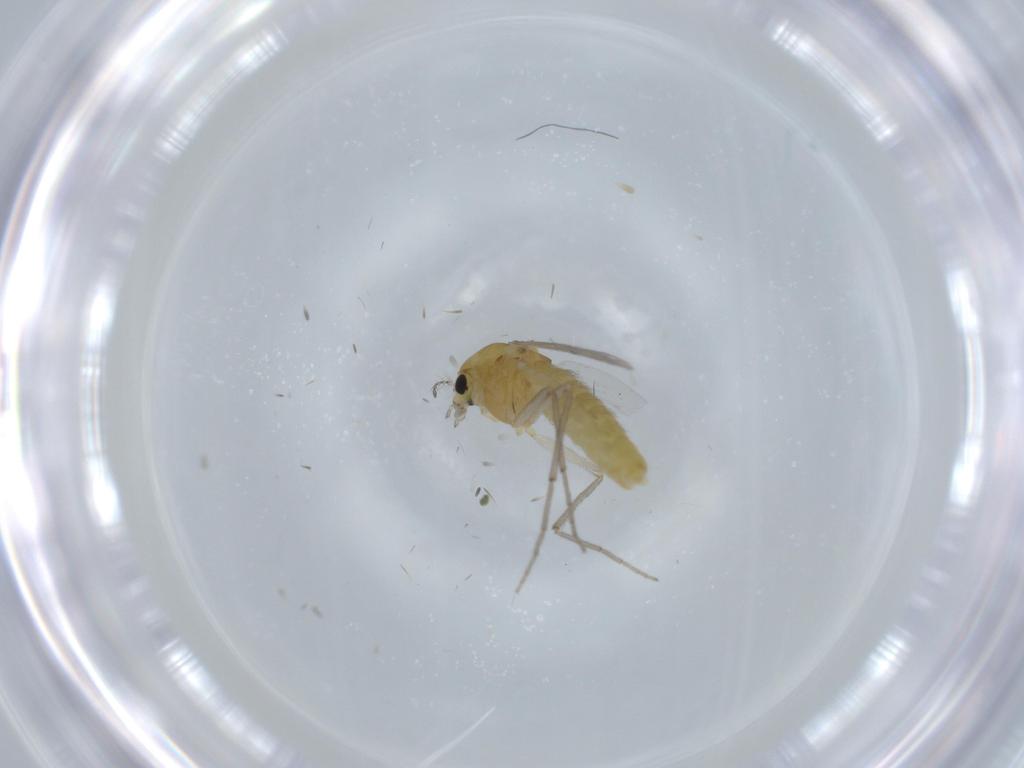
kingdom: Animalia
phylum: Arthropoda
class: Insecta
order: Diptera
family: Chironomidae
